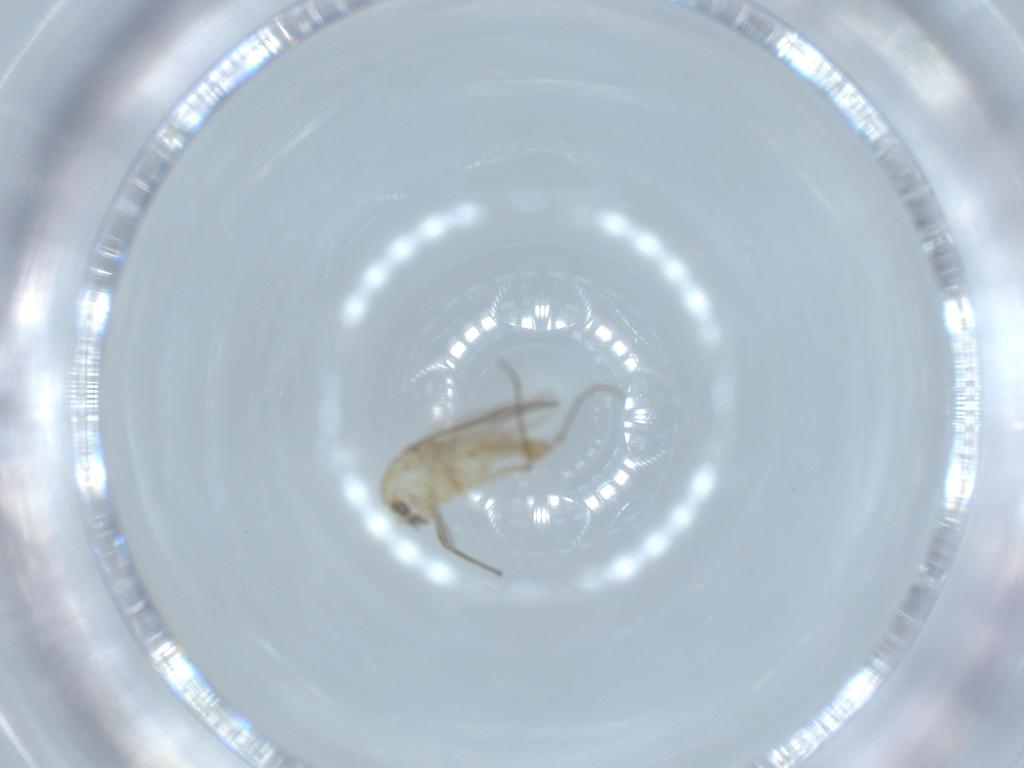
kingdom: Animalia
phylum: Arthropoda
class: Insecta
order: Diptera
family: Chironomidae
